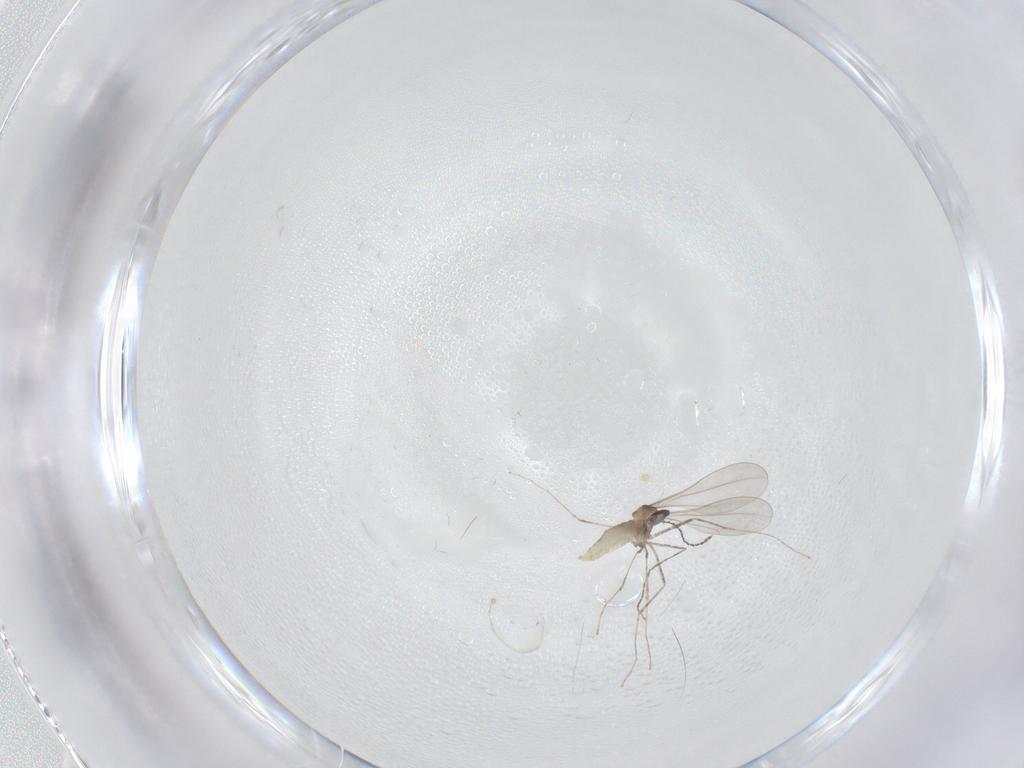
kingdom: Animalia
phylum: Arthropoda
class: Insecta
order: Diptera
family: Cecidomyiidae
